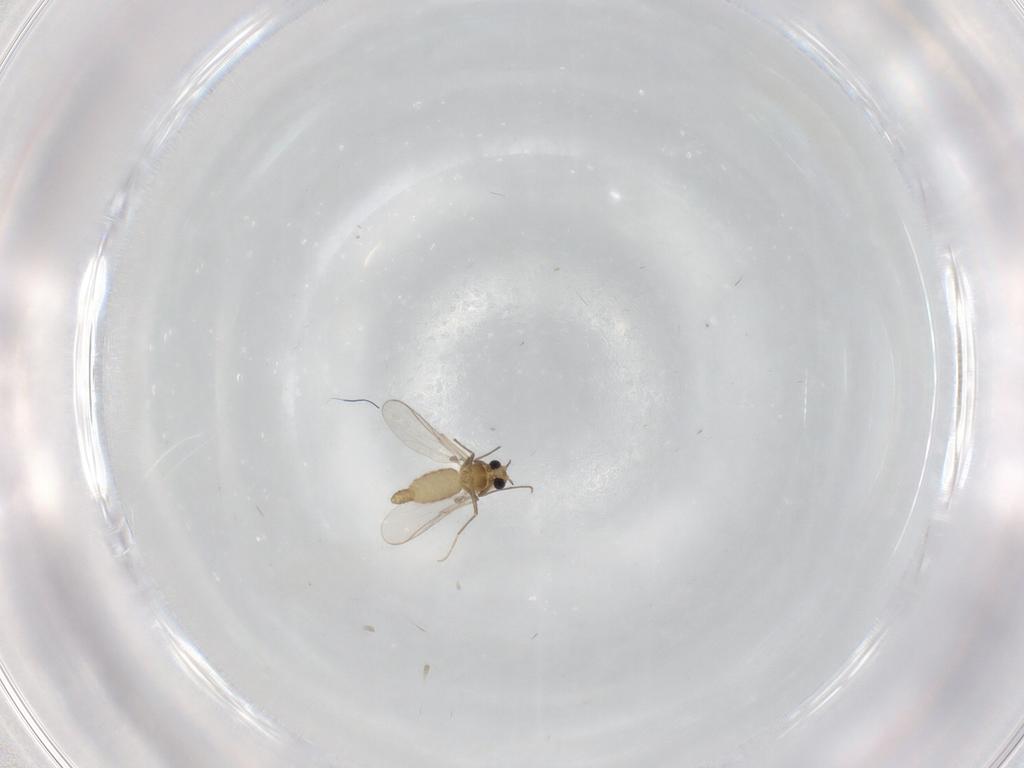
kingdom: Animalia
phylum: Arthropoda
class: Insecta
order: Diptera
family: Chironomidae
